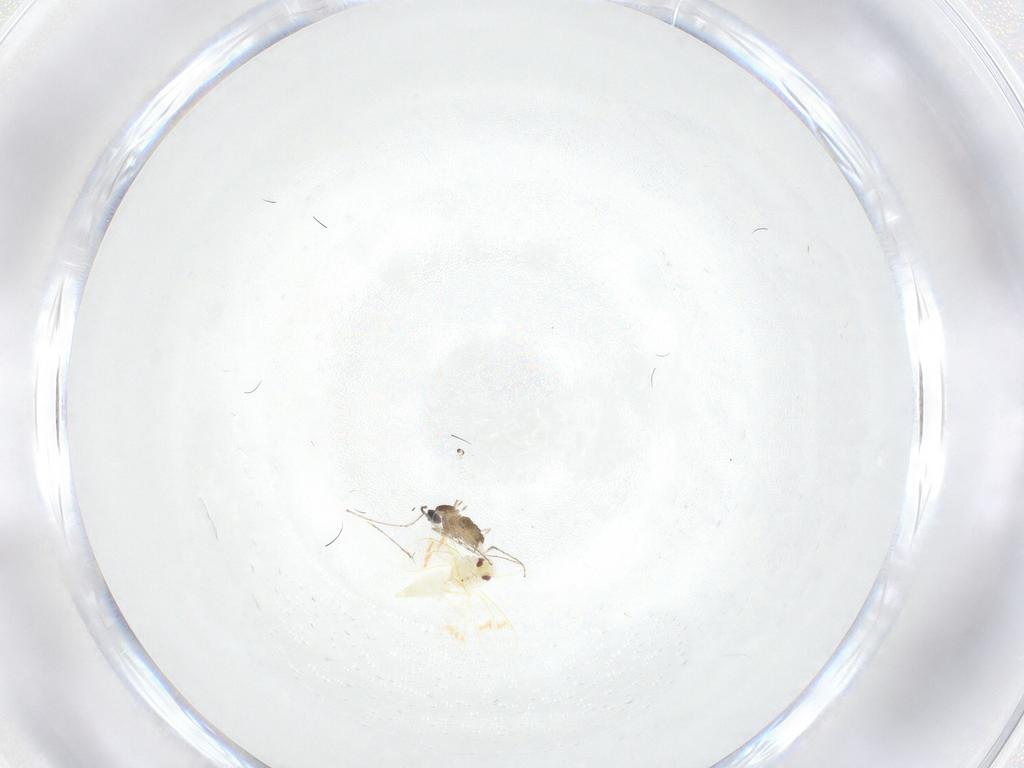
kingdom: Animalia
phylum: Arthropoda
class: Insecta
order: Diptera
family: Cecidomyiidae
